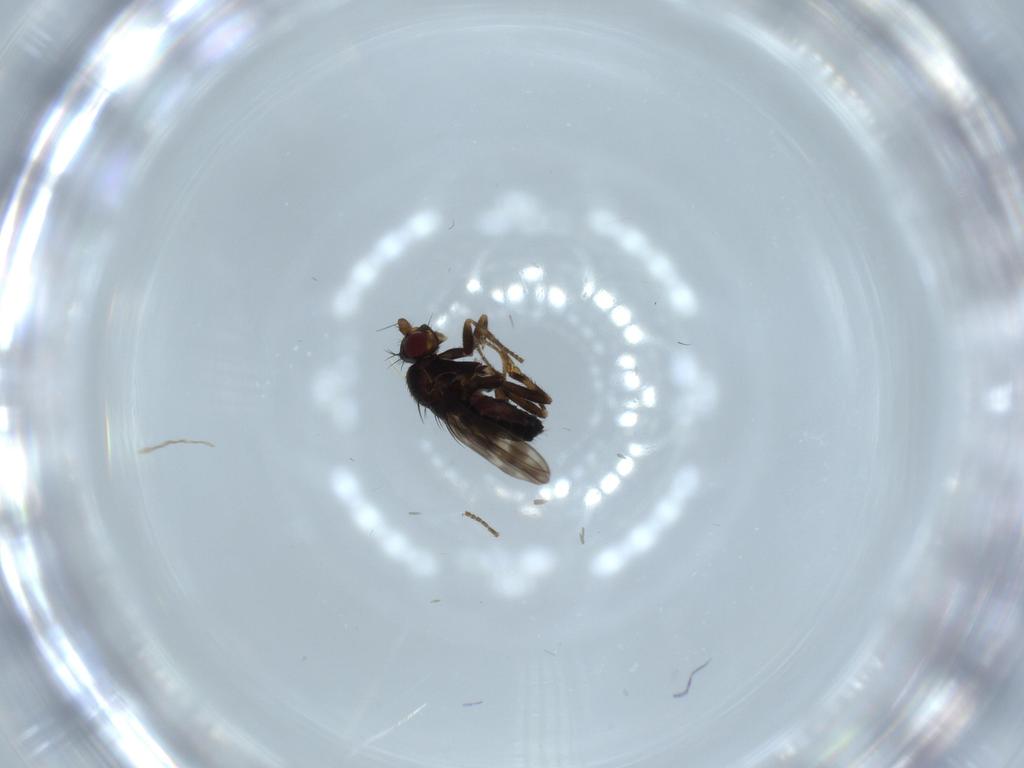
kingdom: Animalia
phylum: Arthropoda
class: Insecta
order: Diptera
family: Sphaeroceridae
